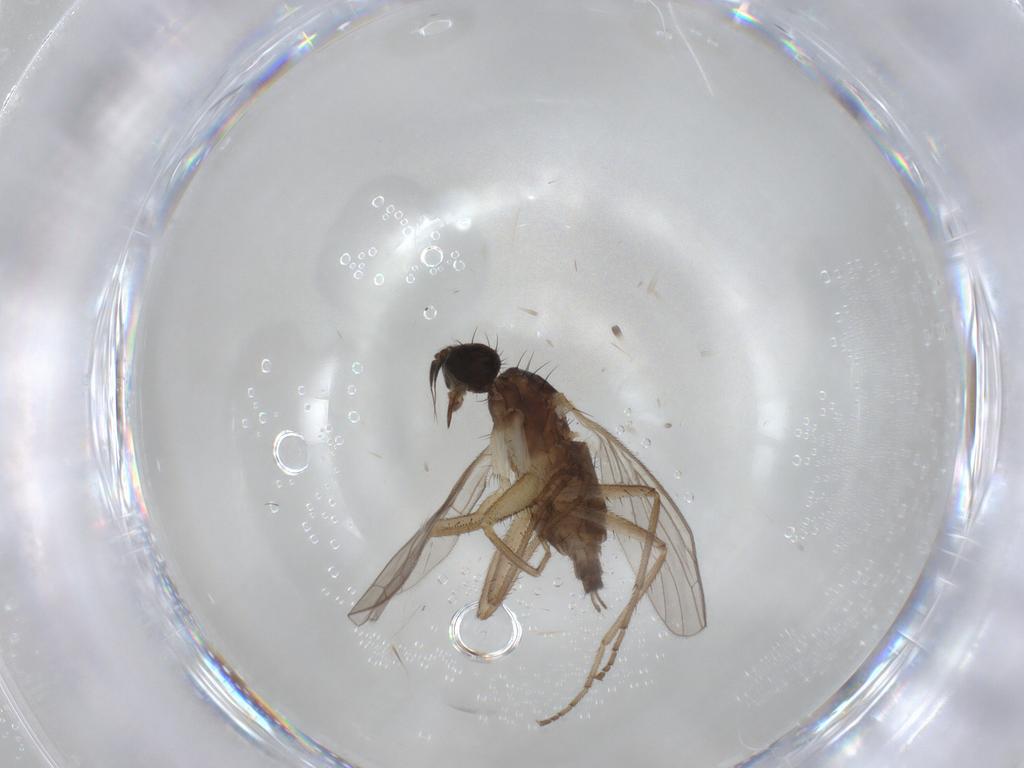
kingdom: Animalia
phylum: Arthropoda
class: Insecta
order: Diptera
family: Empididae
